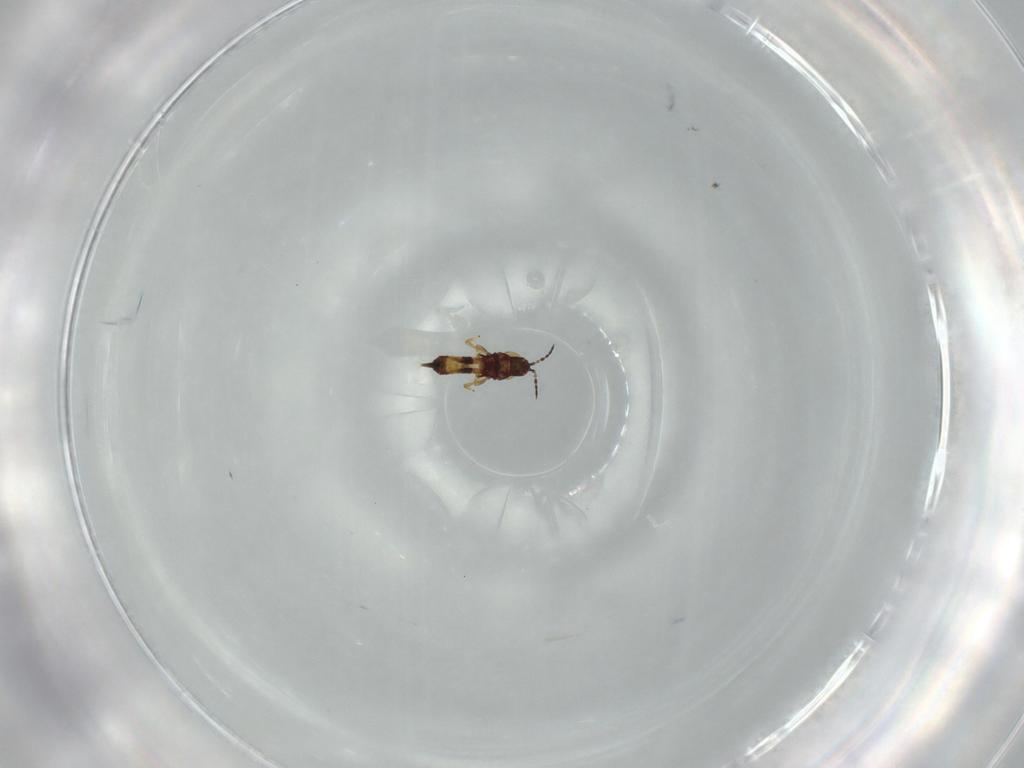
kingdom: Animalia
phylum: Arthropoda
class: Insecta
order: Thysanoptera
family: Phlaeothripidae
